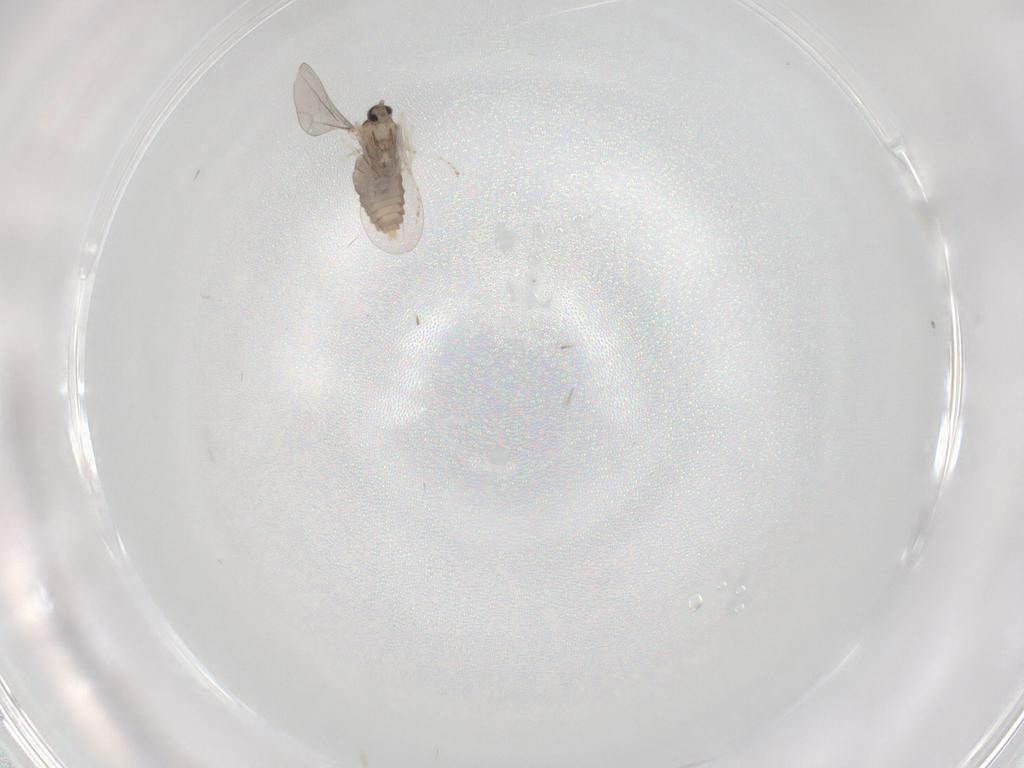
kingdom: Animalia
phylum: Arthropoda
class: Insecta
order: Diptera
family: Cecidomyiidae
